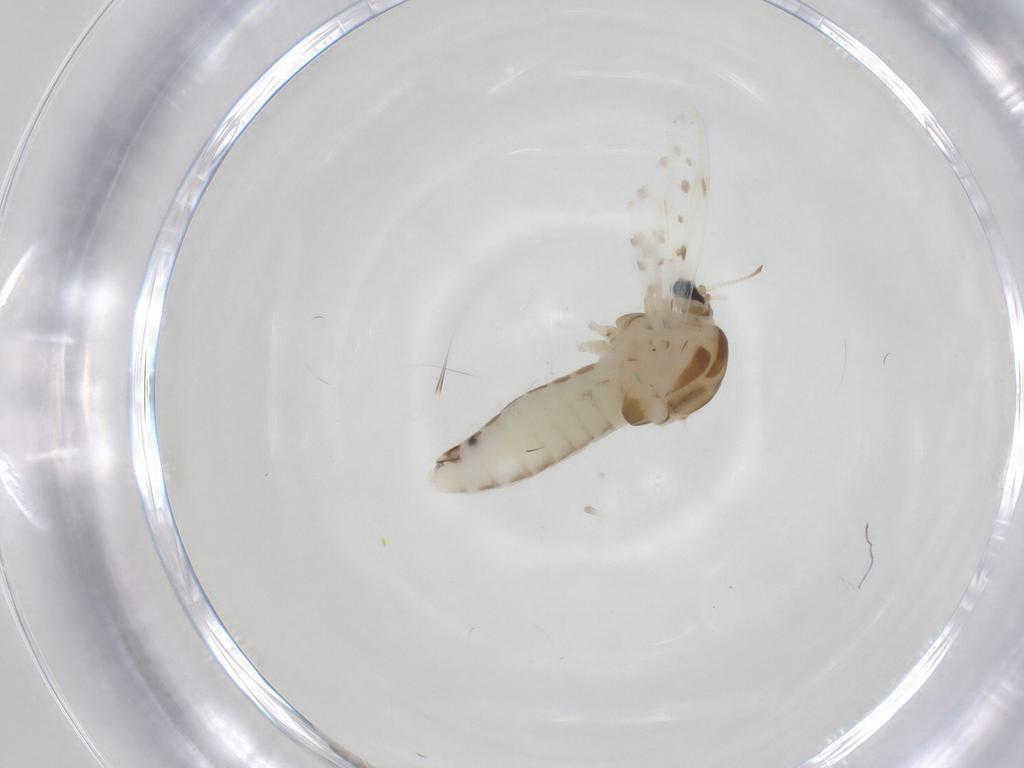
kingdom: Animalia
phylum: Arthropoda
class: Insecta
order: Diptera
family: Chironomidae
